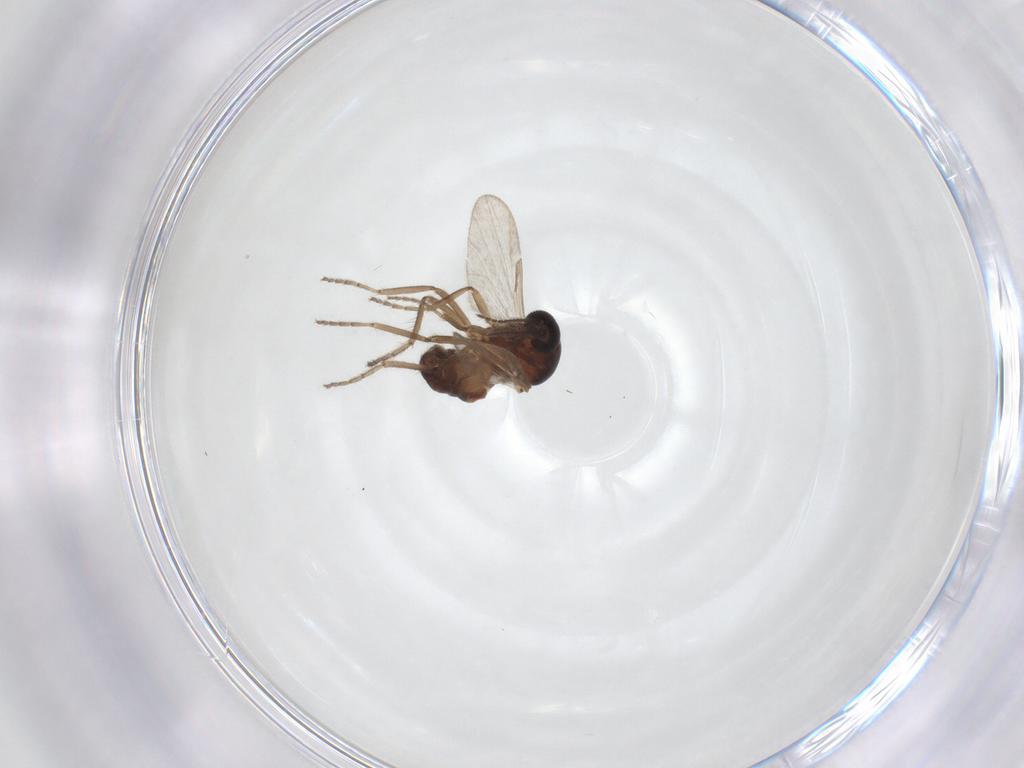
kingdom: Animalia
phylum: Arthropoda
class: Insecta
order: Diptera
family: Ceratopogonidae
